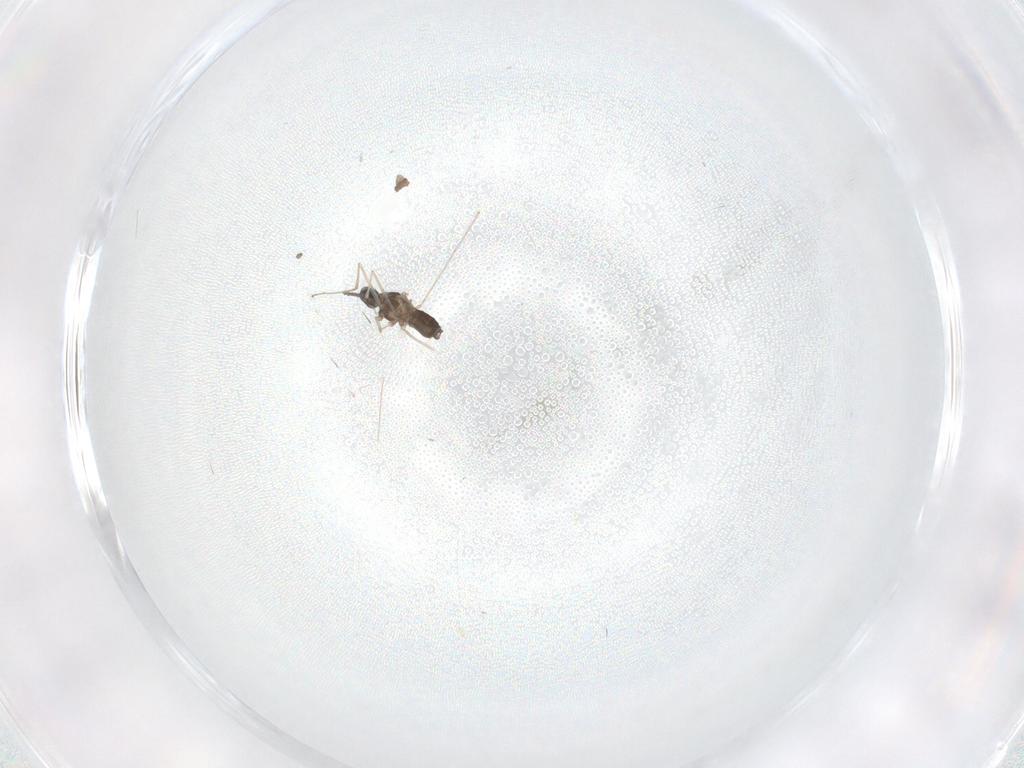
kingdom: Animalia
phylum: Arthropoda
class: Insecta
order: Diptera
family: Cecidomyiidae
